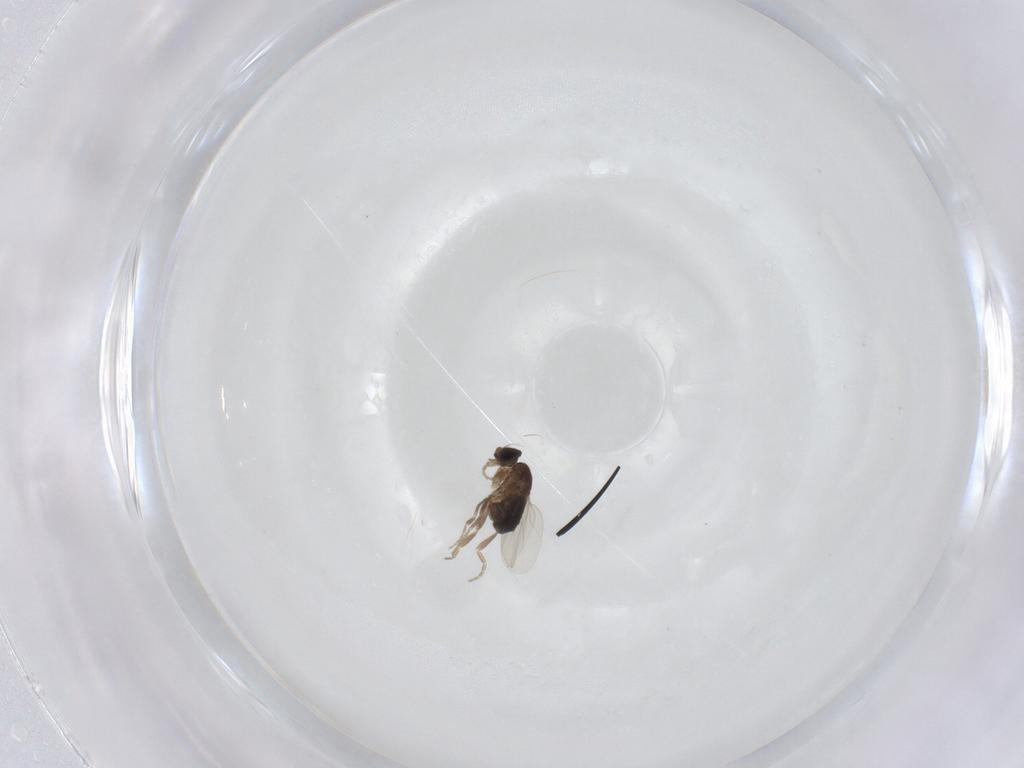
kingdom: Animalia
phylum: Arthropoda
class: Insecta
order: Diptera
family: Phoridae
